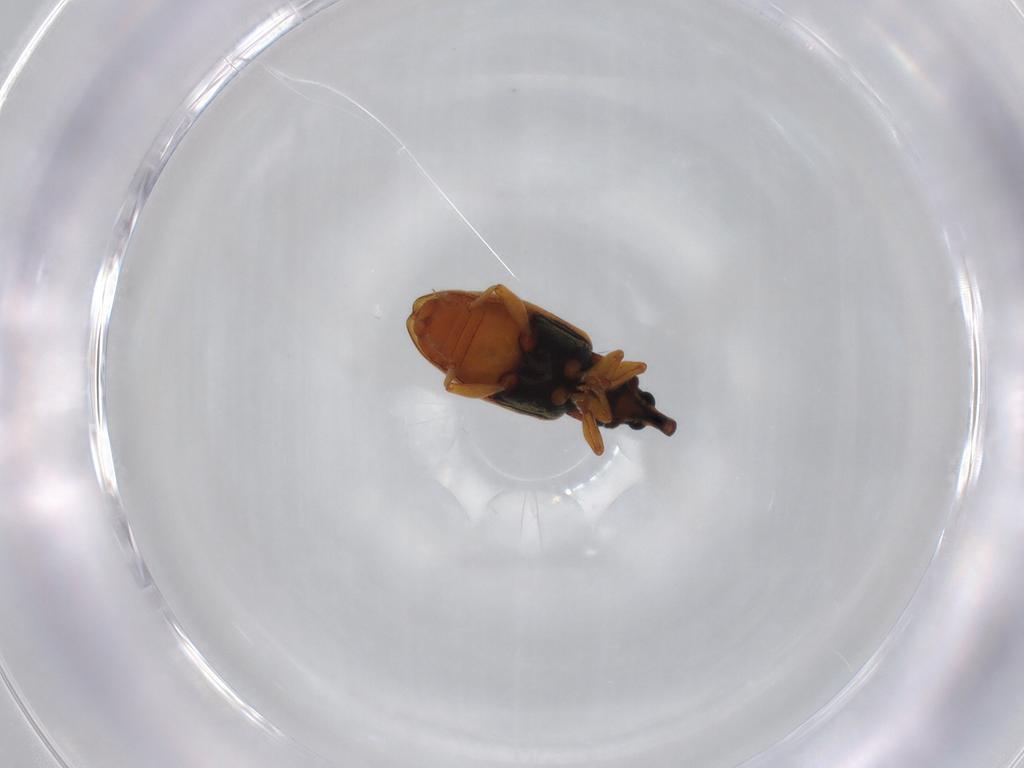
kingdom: Animalia
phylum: Arthropoda
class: Insecta
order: Coleoptera
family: Curculionidae
